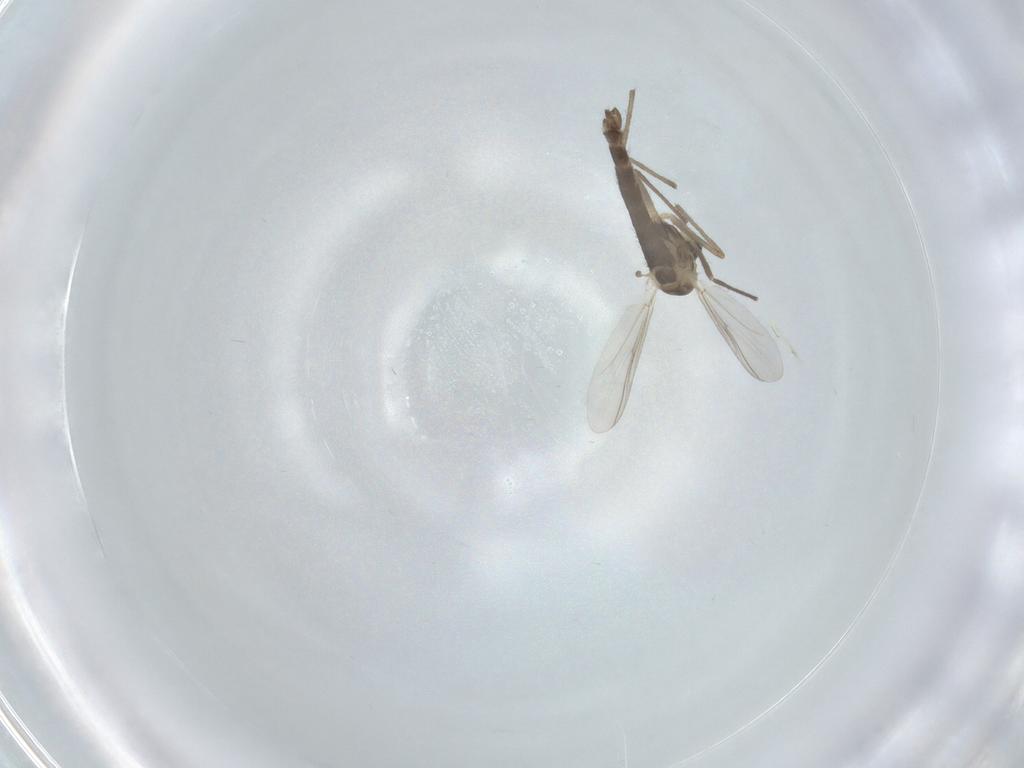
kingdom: Animalia
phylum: Arthropoda
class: Insecta
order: Diptera
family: Chironomidae
